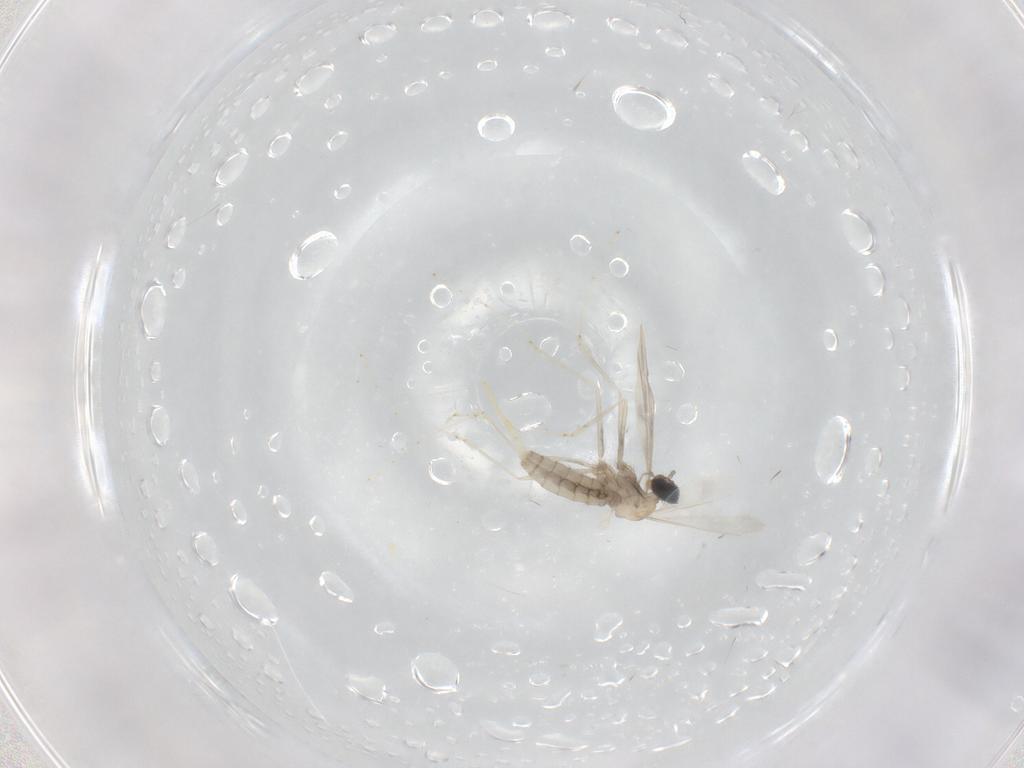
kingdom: Animalia
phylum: Arthropoda
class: Insecta
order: Diptera
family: Cecidomyiidae
